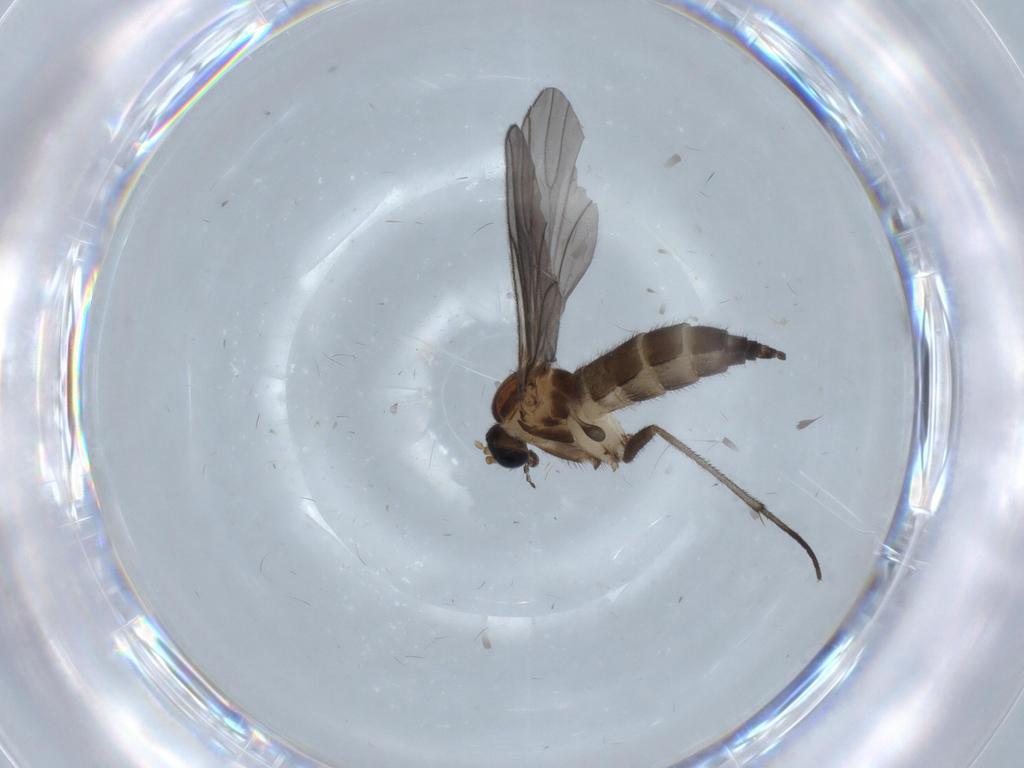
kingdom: Animalia
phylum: Arthropoda
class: Insecta
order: Diptera
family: Sciaridae
